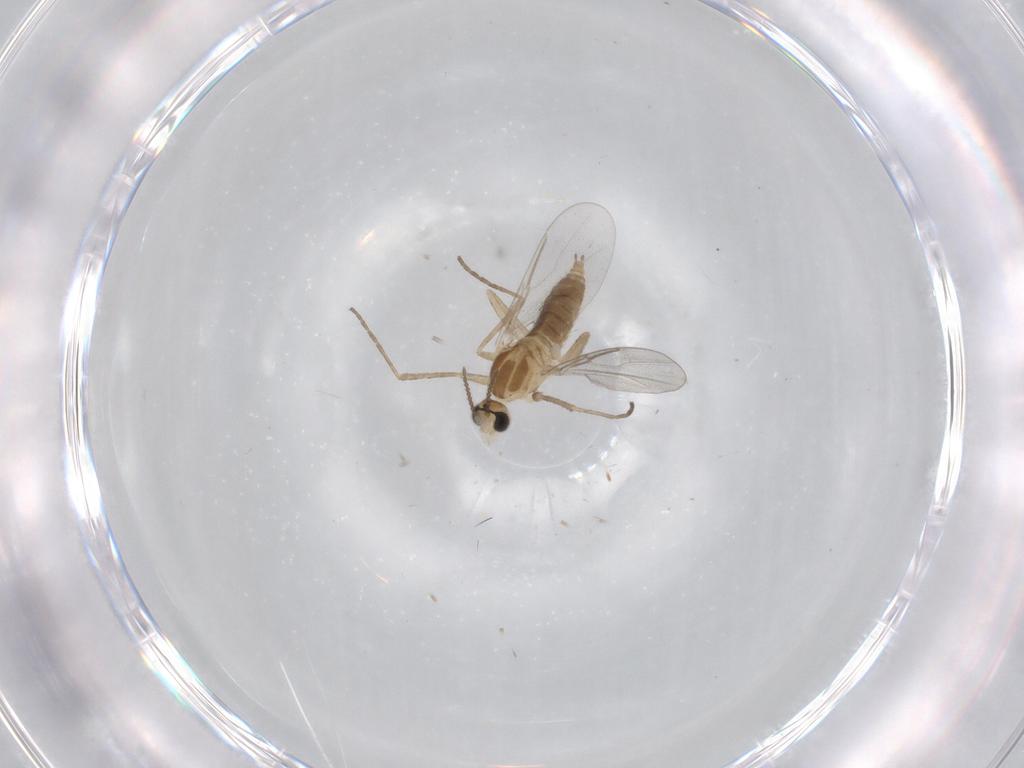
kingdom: Animalia
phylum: Arthropoda
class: Insecta
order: Diptera
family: Cecidomyiidae
